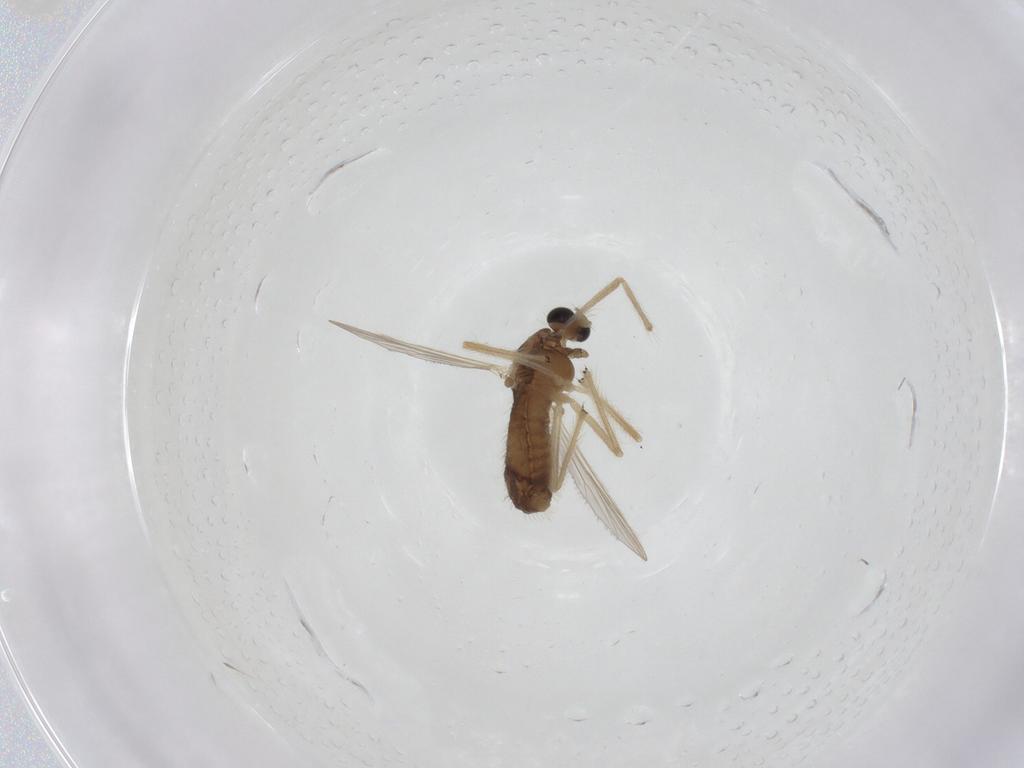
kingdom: Animalia
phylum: Arthropoda
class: Insecta
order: Diptera
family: Chironomidae
